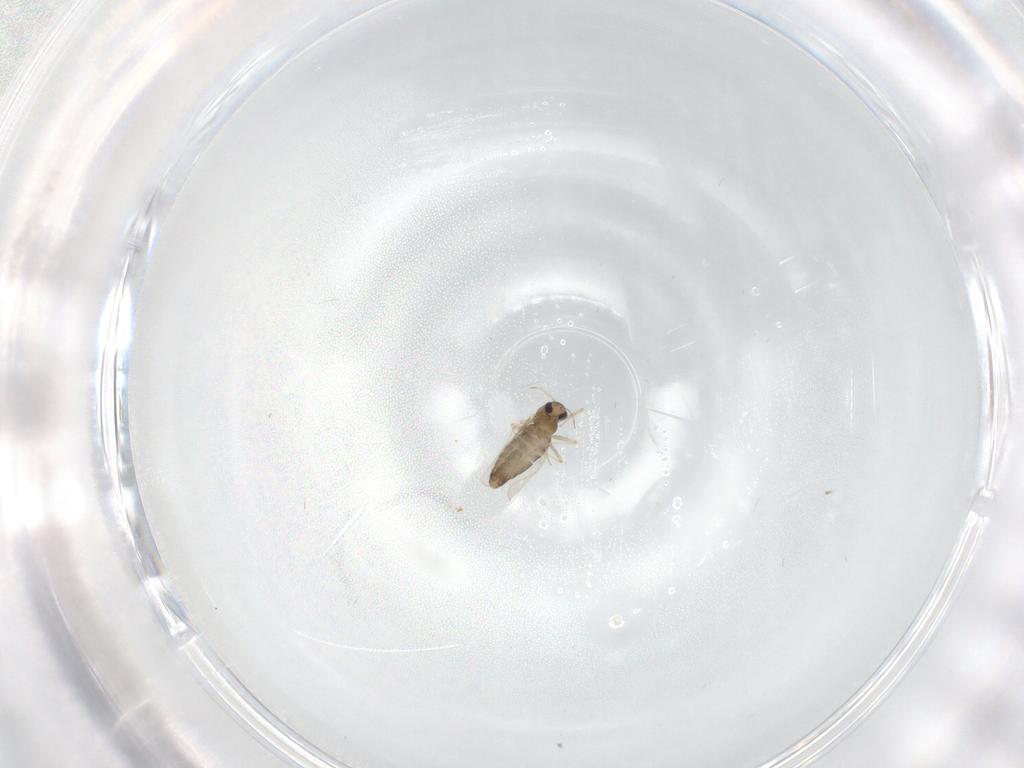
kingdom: Animalia
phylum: Arthropoda
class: Insecta
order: Diptera
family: Chironomidae
